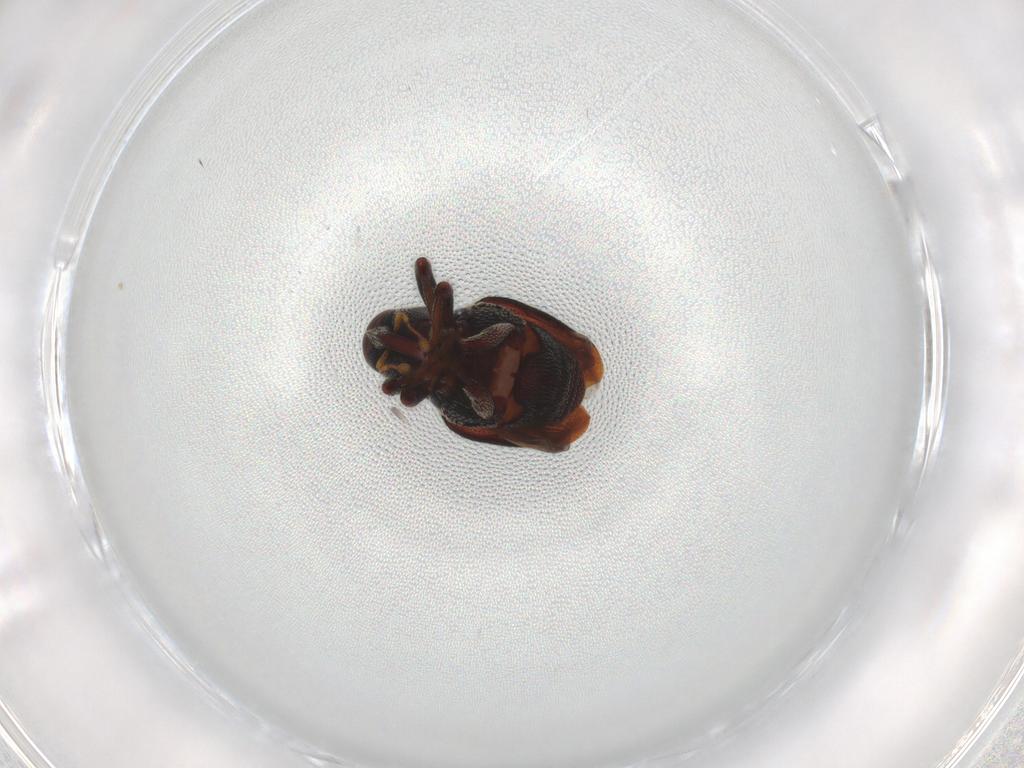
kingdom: Animalia
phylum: Arthropoda
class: Insecta
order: Coleoptera
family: Curculionidae
